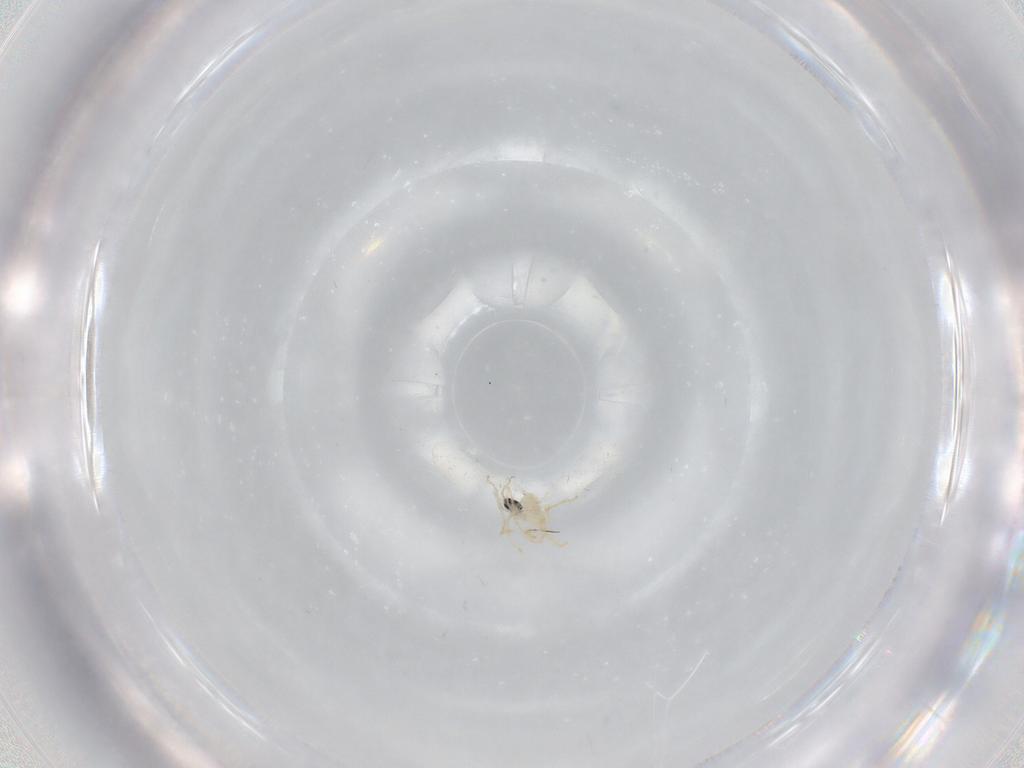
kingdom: Animalia
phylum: Arthropoda
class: Insecta
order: Diptera
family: Cecidomyiidae
